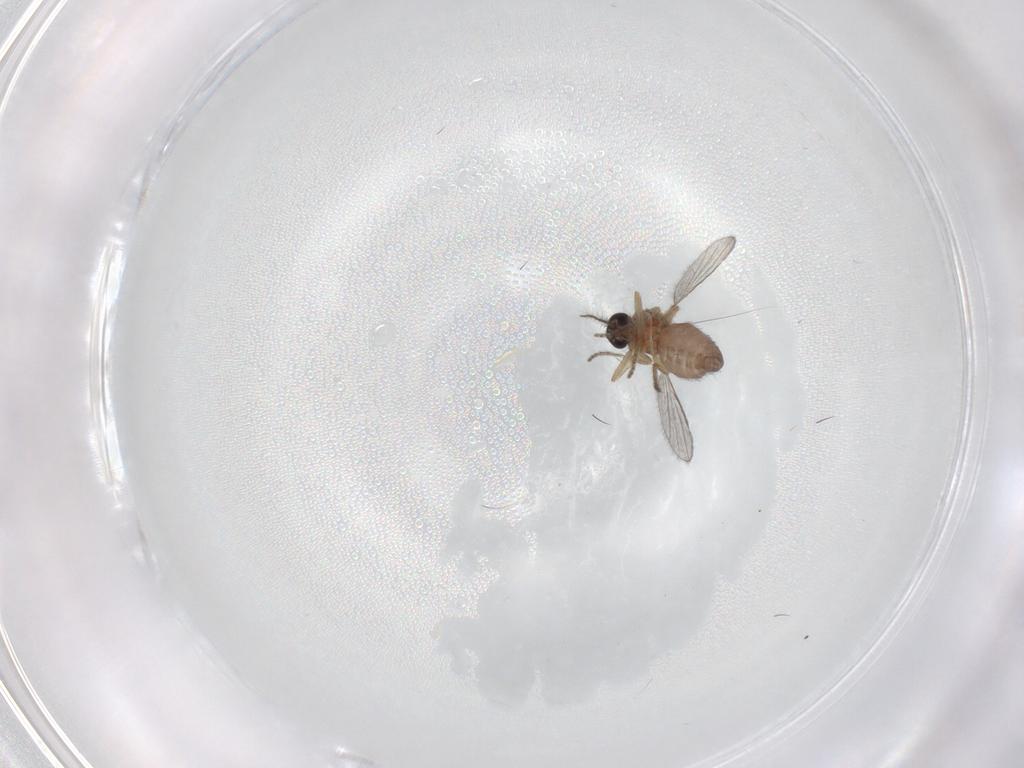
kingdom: Animalia
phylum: Arthropoda
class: Insecta
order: Diptera
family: Ceratopogonidae
